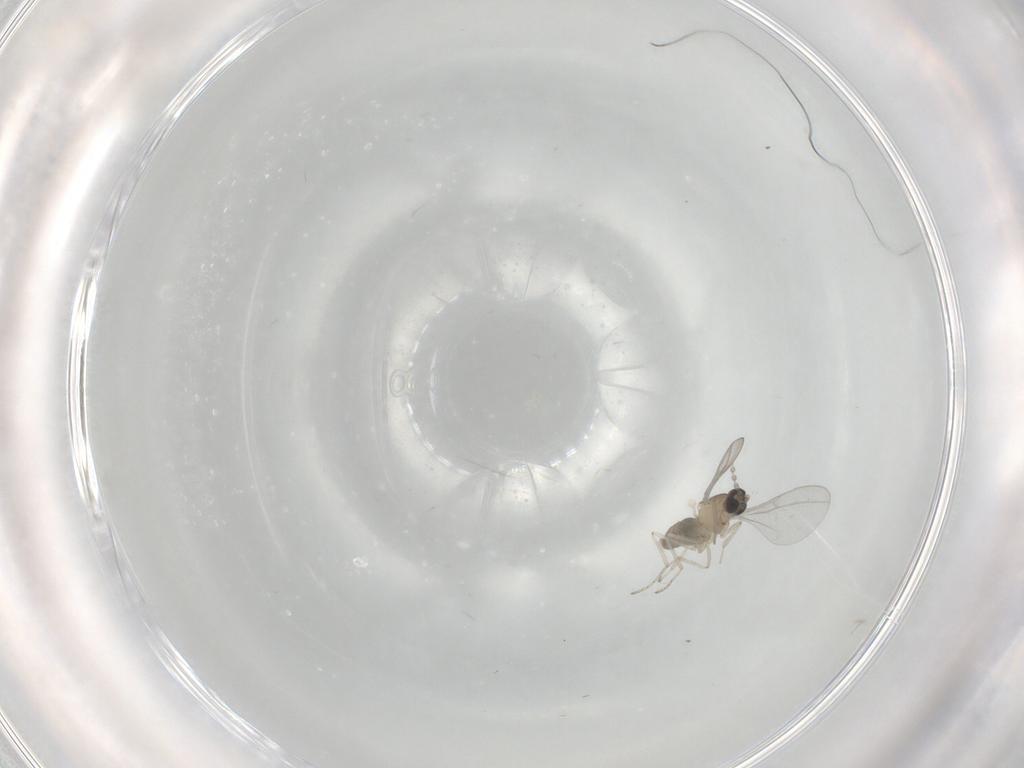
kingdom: Animalia
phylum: Arthropoda
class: Insecta
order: Diptera
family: Cecidomyiidae
